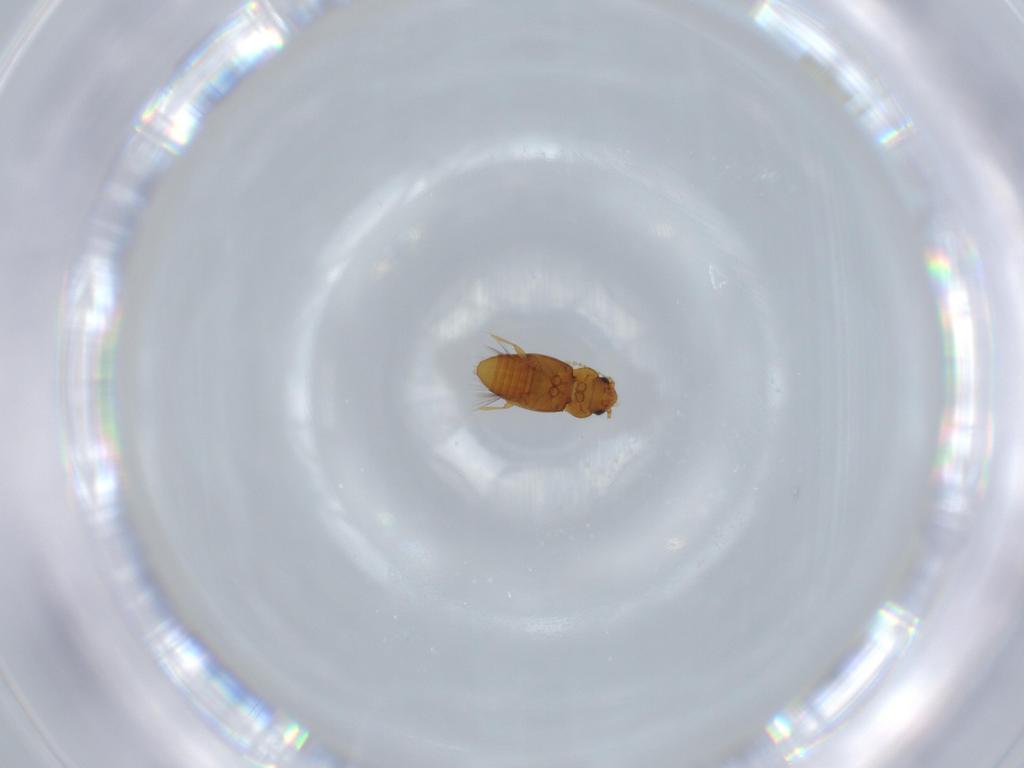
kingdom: Animalia
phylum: Arthropoda
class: Insecta
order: Coleoptera
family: Ptiliidae
